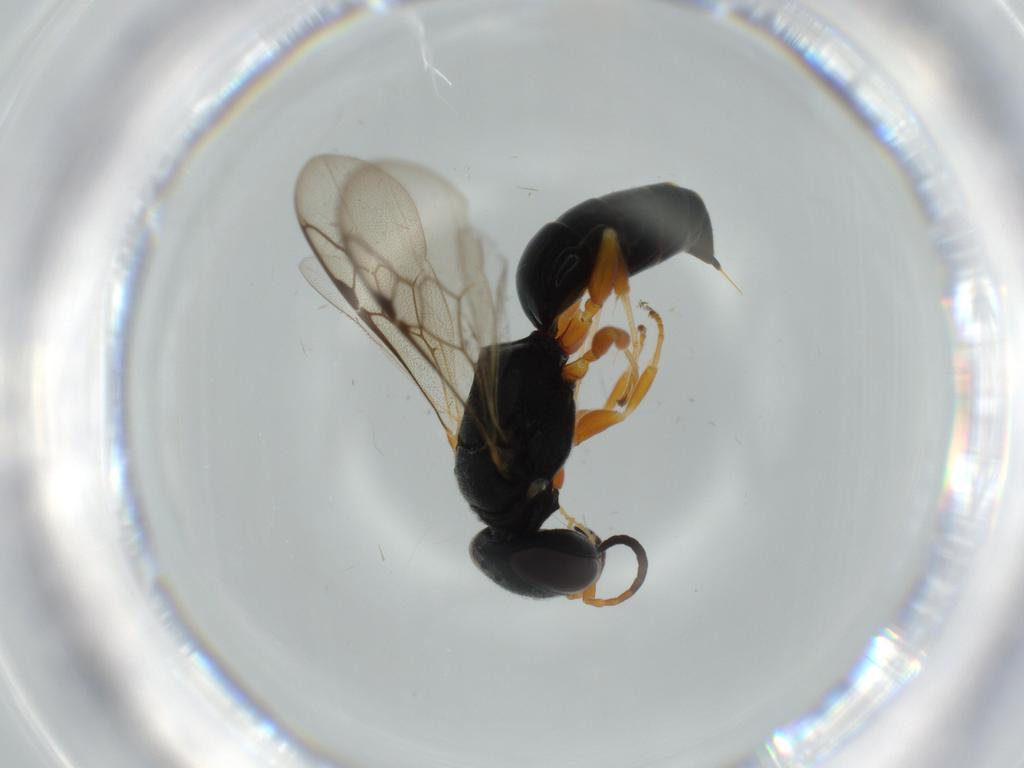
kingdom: Animalia
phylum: Arthropoda
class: Insecta
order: Hymenoptera
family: Crabronidae
